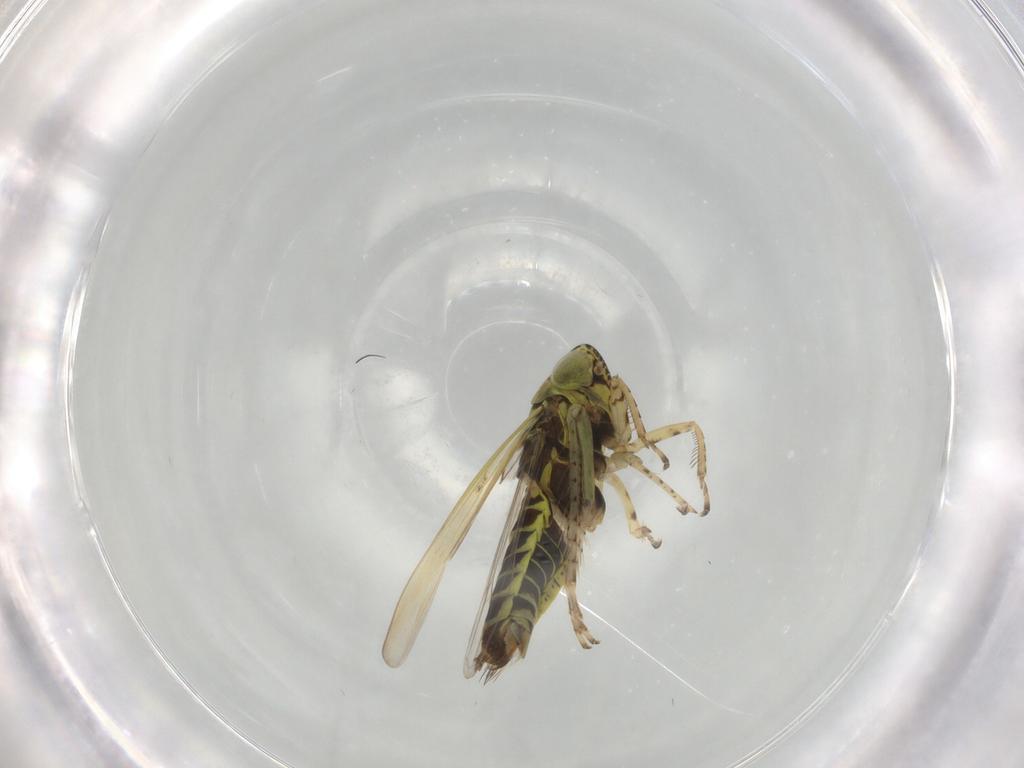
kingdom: Animalia
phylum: Arthropoda
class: Insecta
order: Hemiptera
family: Cicadellidae
